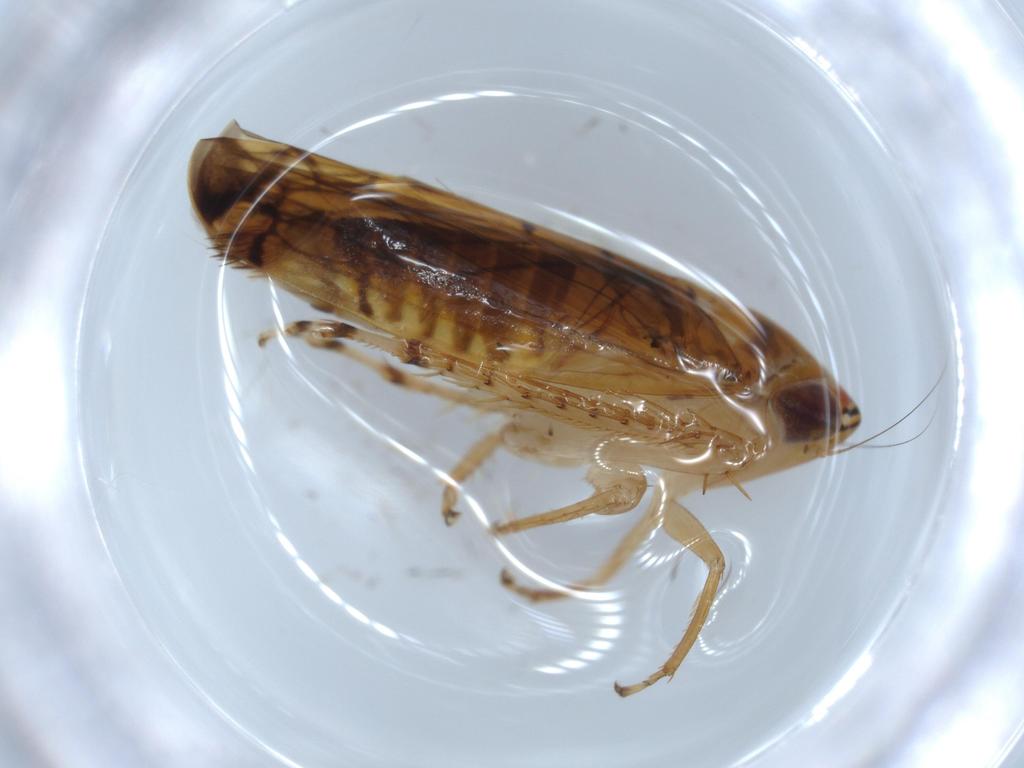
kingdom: Animalia
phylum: Arthropoda
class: Insecta
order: Hemiptera
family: Cicadellidae
